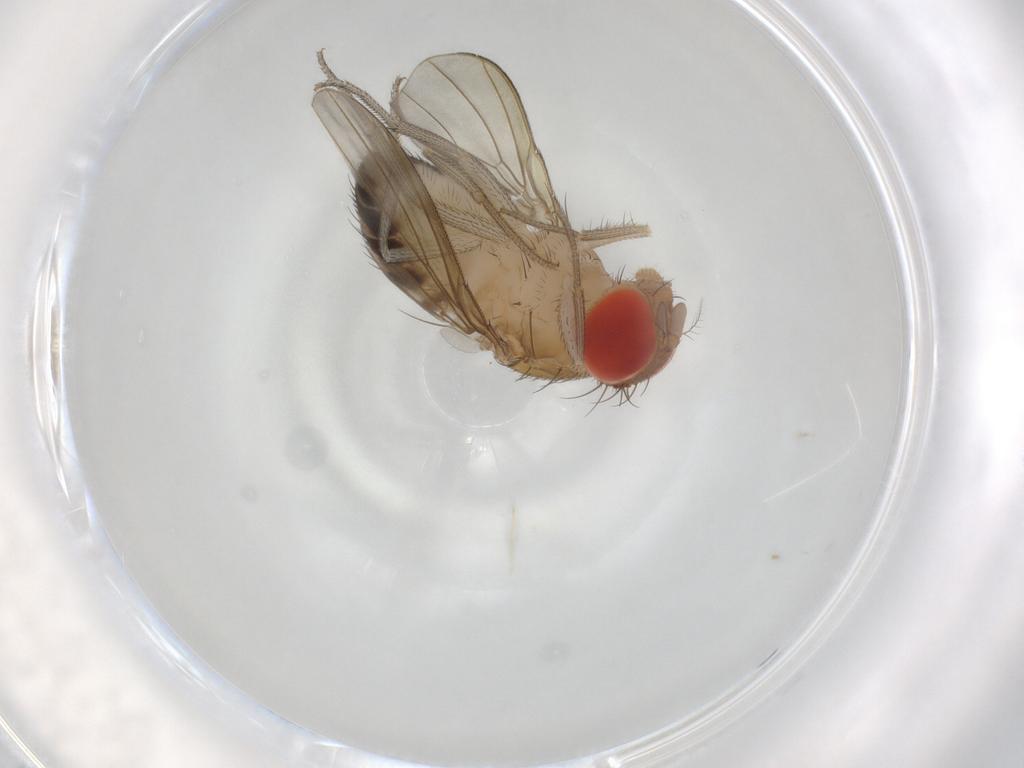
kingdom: Animalia
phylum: Arthropoda
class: Insecta
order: Diptera
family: Drosophilidae
